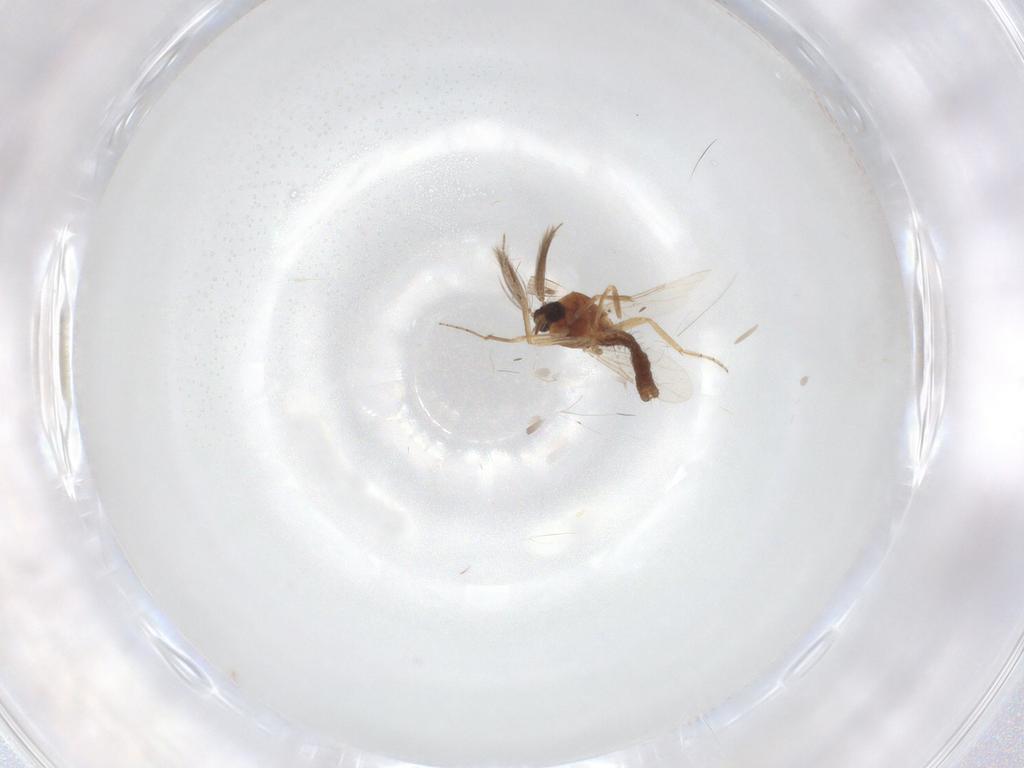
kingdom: Animalia
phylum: Arthropoda
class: Insecta
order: Diptera
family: Ceratopogonidae
